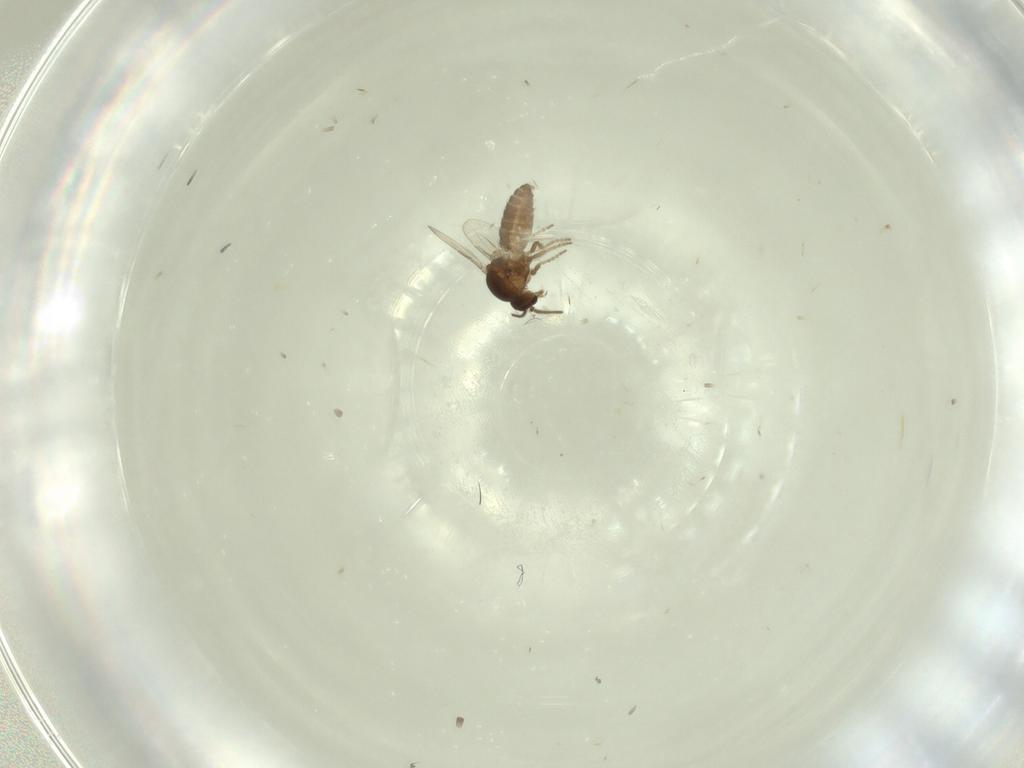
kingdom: Animalia
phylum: Arthropoda
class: Insecta
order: Diptera
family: Ceratopogonidae
